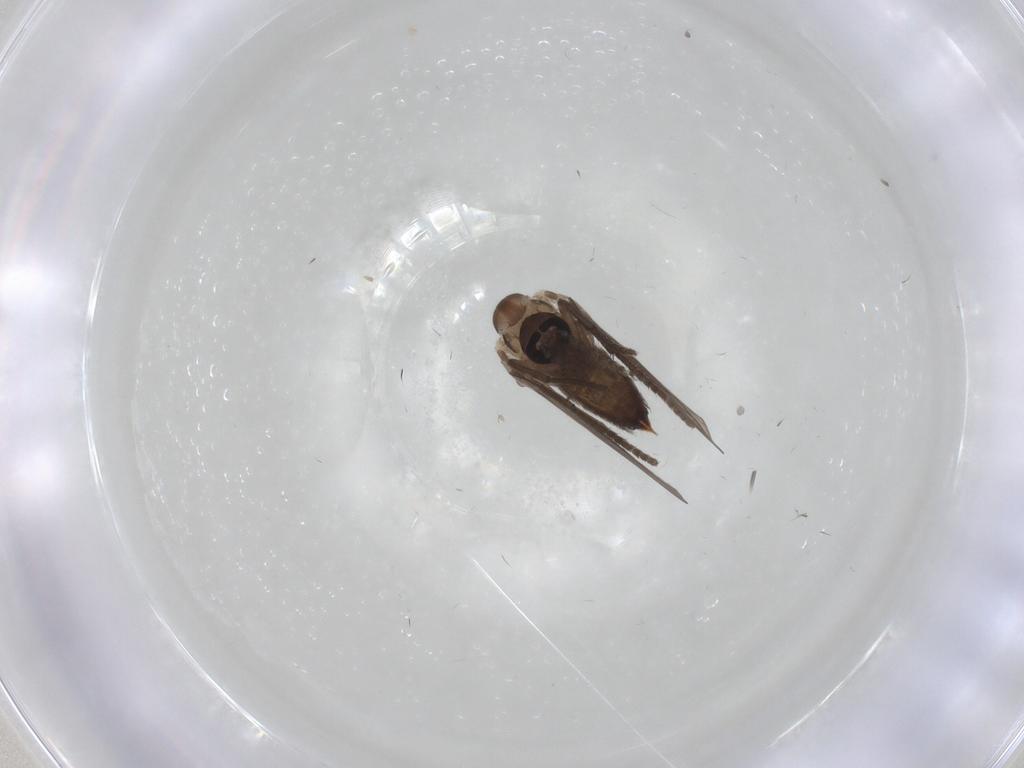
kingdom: Animalia
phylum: Arthropoda
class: Insecta
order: Diptera
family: Psychodidae
